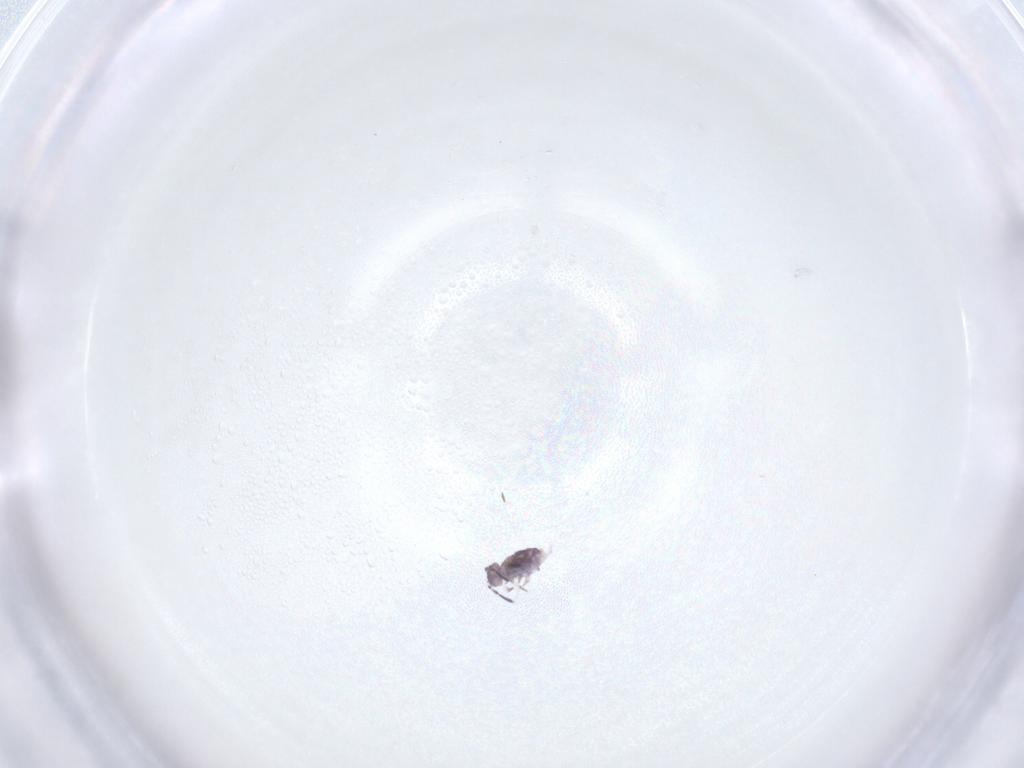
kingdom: Animalia
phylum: Arthropoda
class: Collembola
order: Symphypleona
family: Sminthuridae
